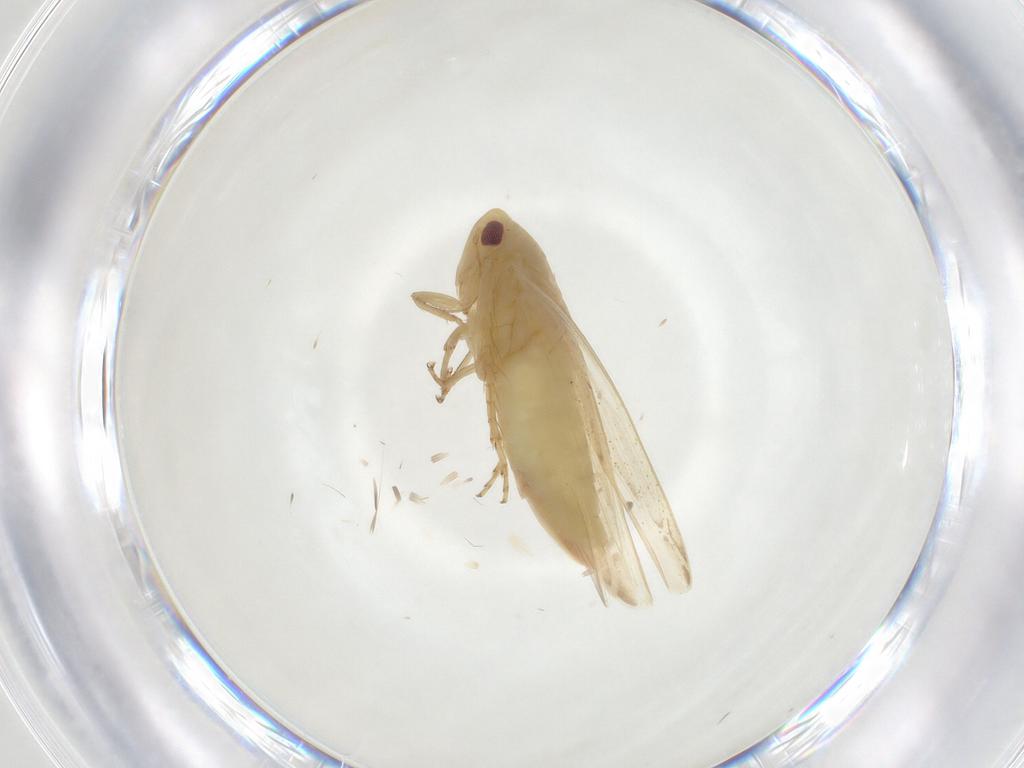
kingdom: Animalia
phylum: Arthropoda
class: Insecta
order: Hemiptera
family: Cicadellidae
